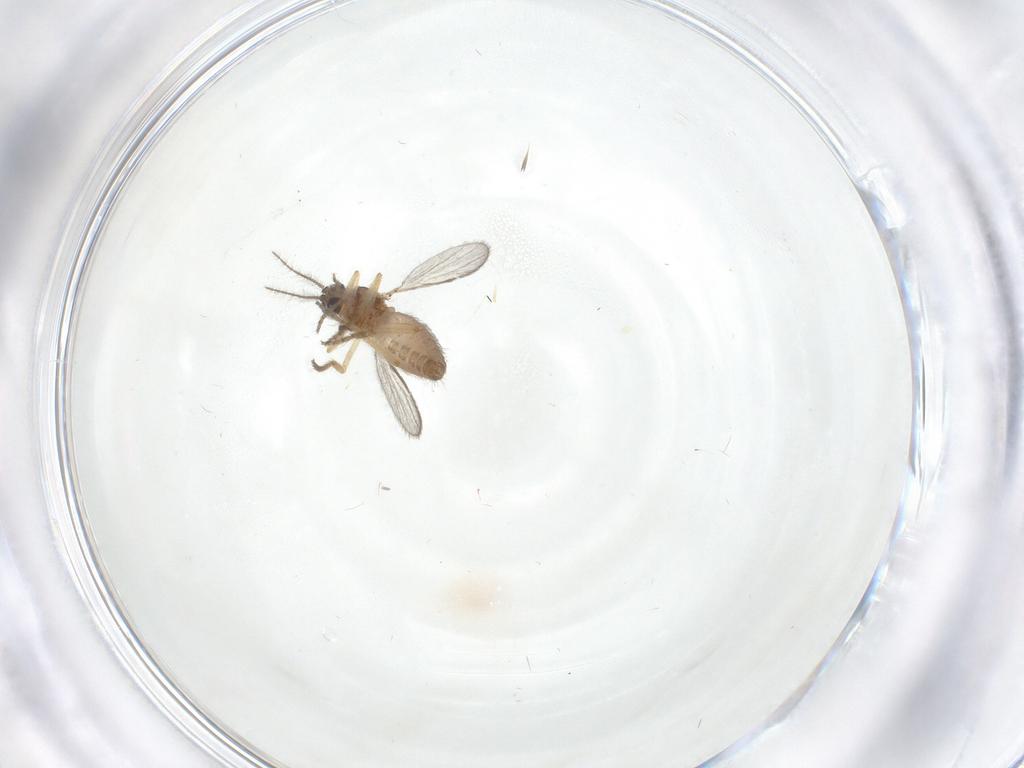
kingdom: Animalia
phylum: Arthropoda
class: Insecta
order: Diptera
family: Ceratopogonidae
